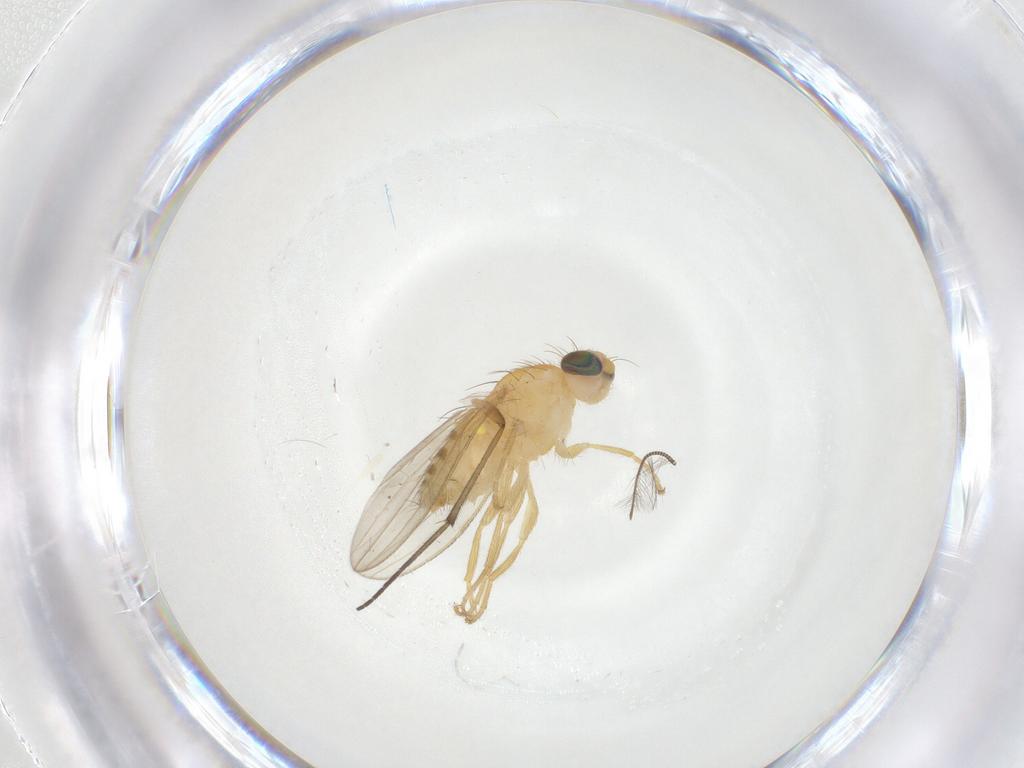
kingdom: Animalia
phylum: Arthropoda
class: Insecta
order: Diptera
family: Chyromyidae
